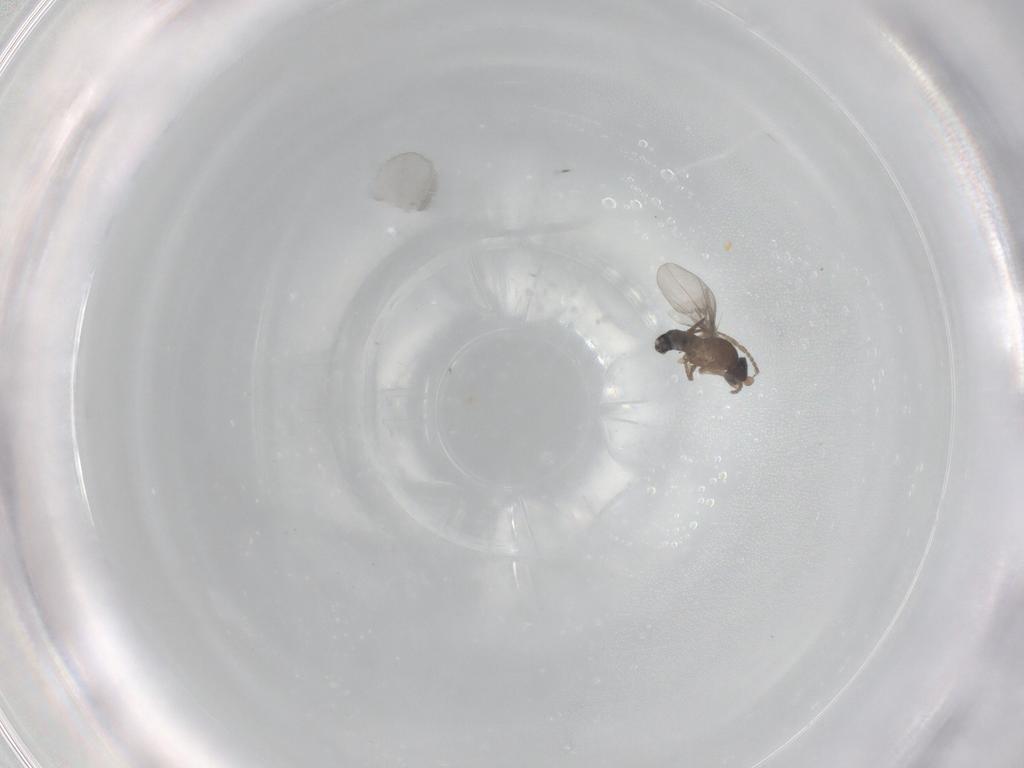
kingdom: Animalia
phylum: Arthropoda
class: Insecta
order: Diptera
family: Phoridae
